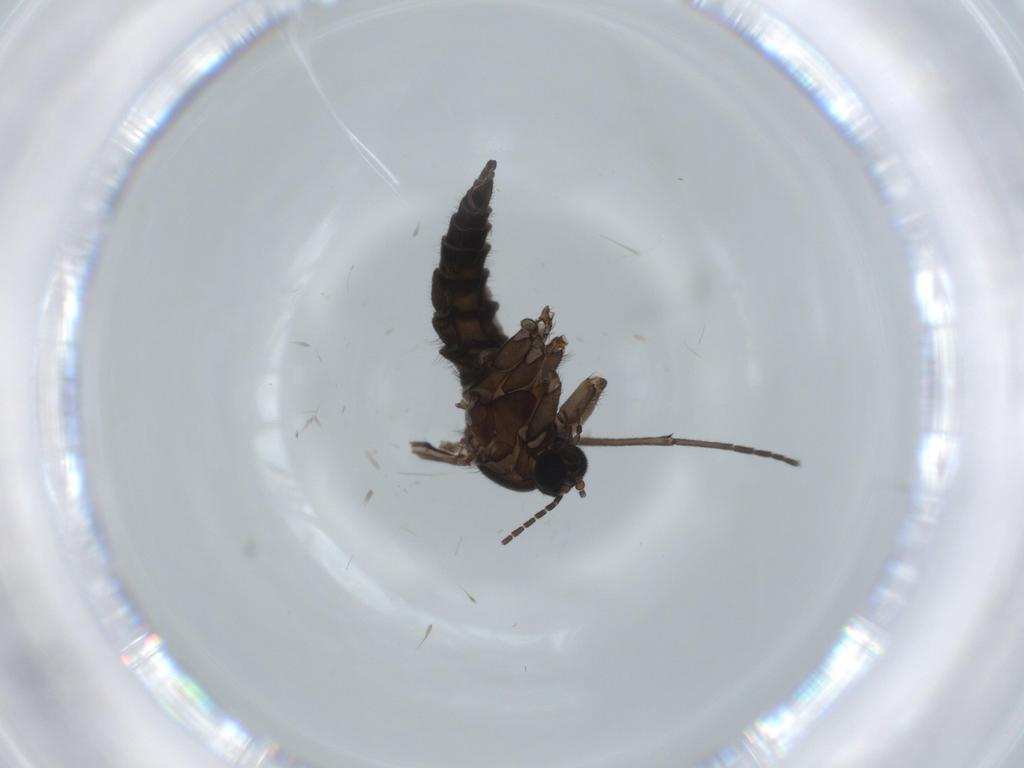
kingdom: Animalia
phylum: Arthropoda
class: Insecta
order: Diptera
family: Sciaridae
